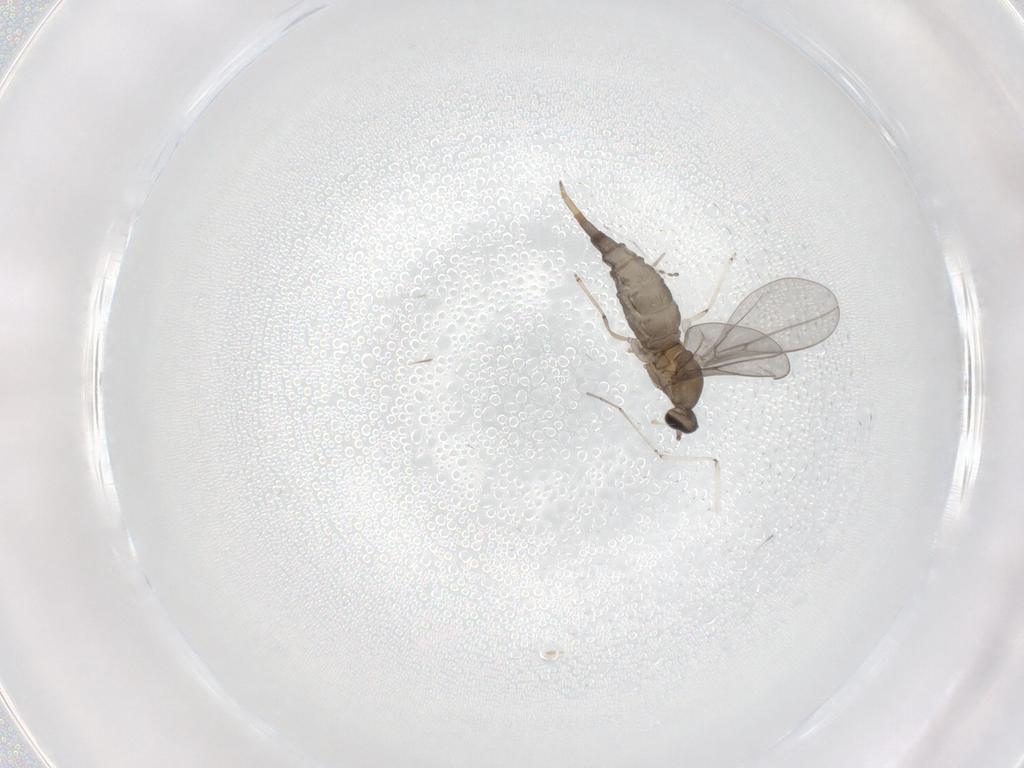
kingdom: Animalia
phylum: Arthropoda
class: Insecta
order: Diptera
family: Cecidomyiidae
